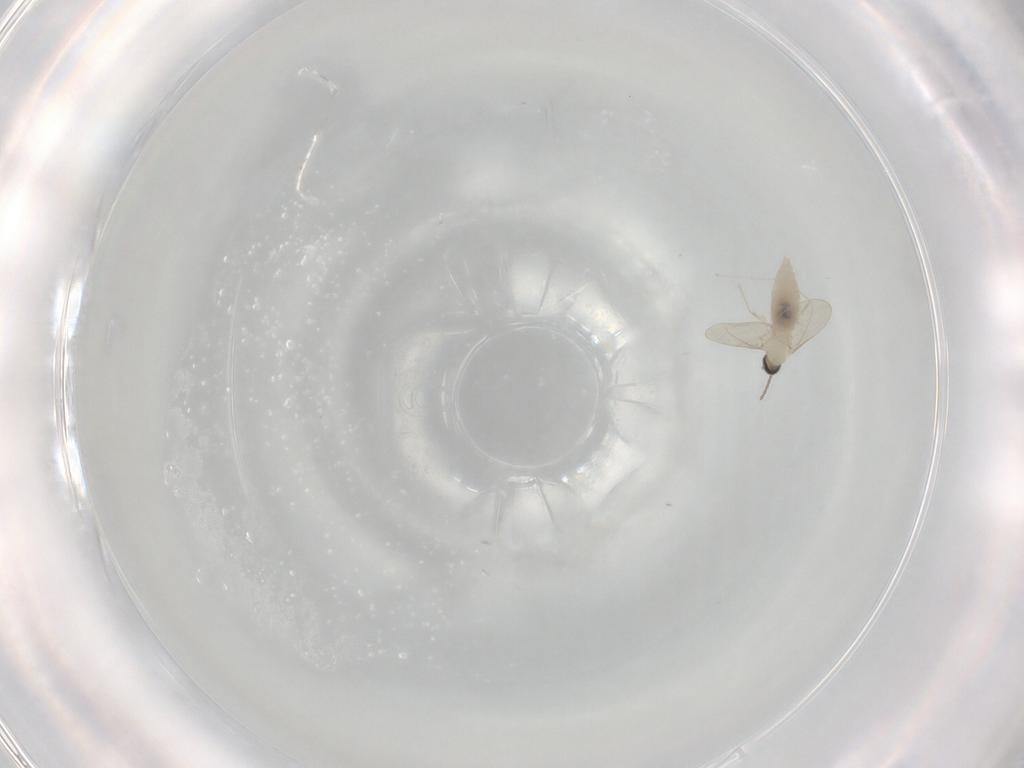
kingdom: Animalia
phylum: Arthropoda
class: Insecta
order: Diptera
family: Cecidomyiidae
